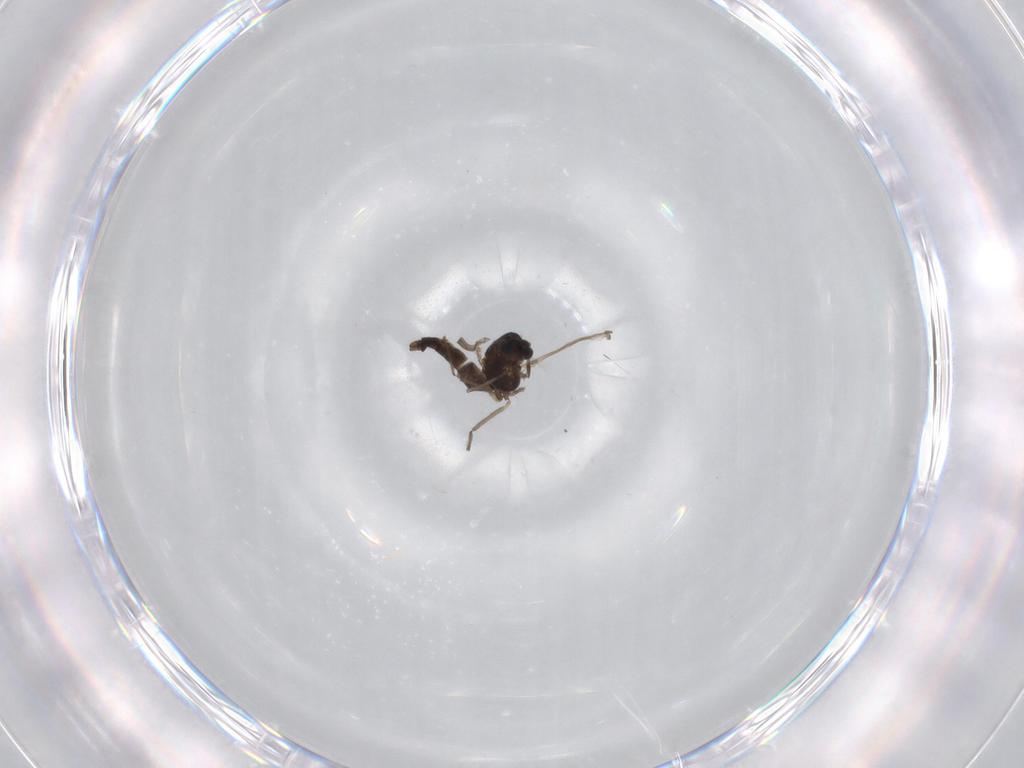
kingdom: Animalia
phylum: Arthropoda
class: Insecta
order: Diptera
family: Chironomidae
